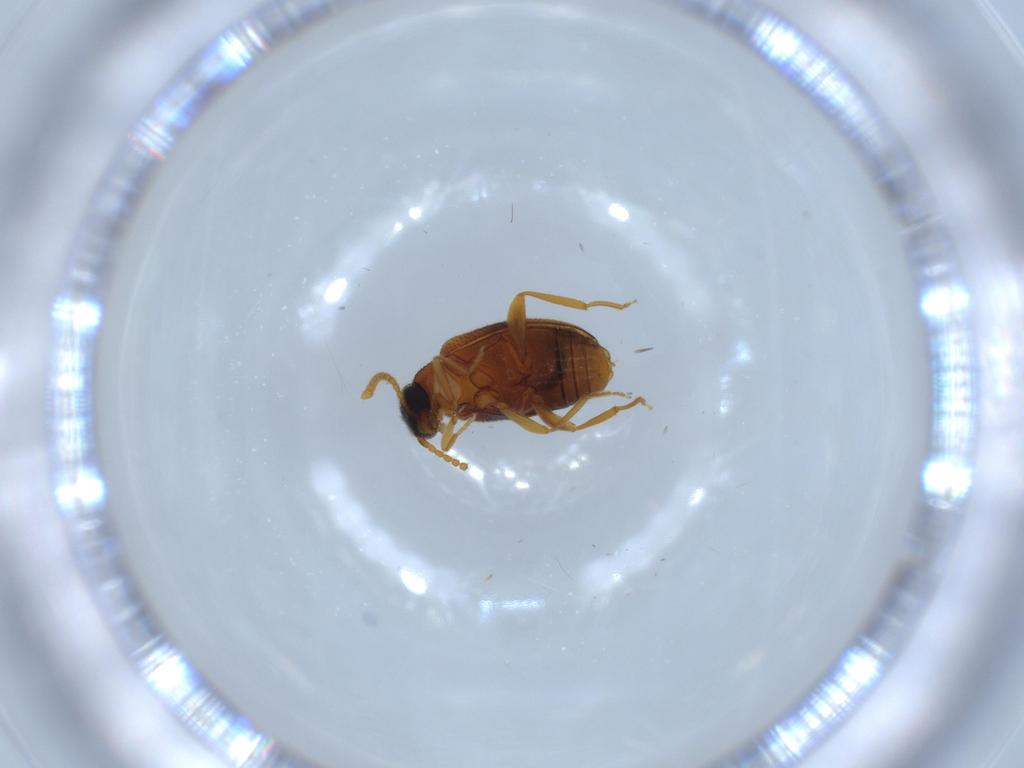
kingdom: Animalia
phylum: Arthropoda
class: Insecta
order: Coleoptera
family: Aderidae
